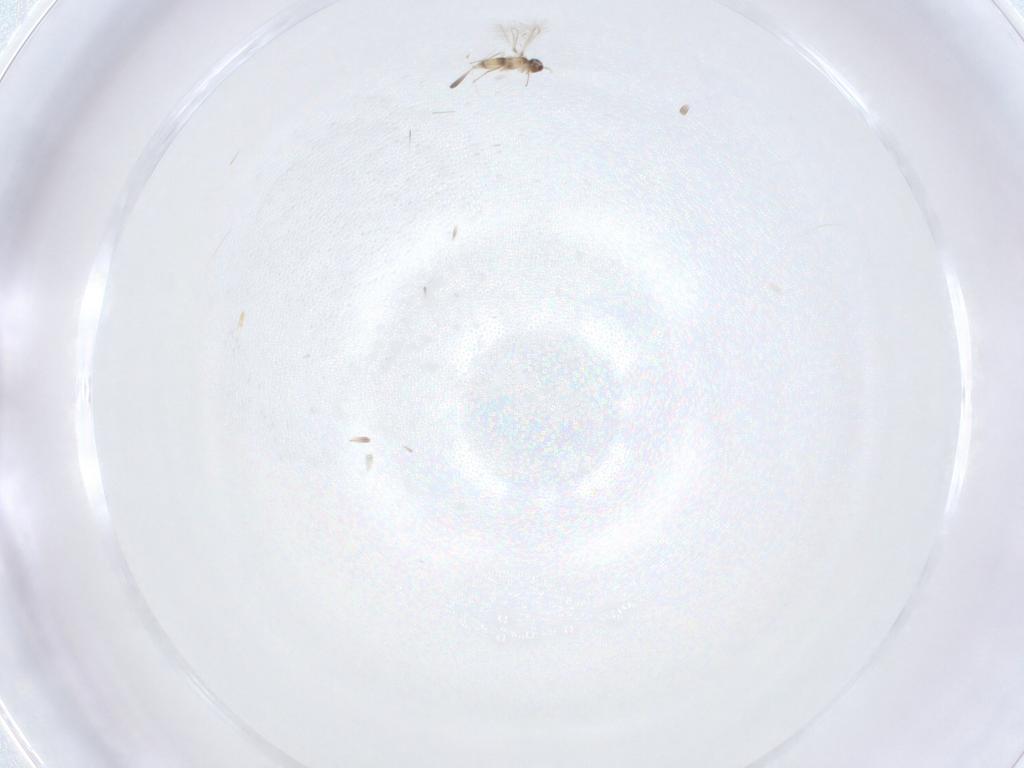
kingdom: Animalia
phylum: Arthropoda
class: Insecta
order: Hymenoptera
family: Mymaridae
